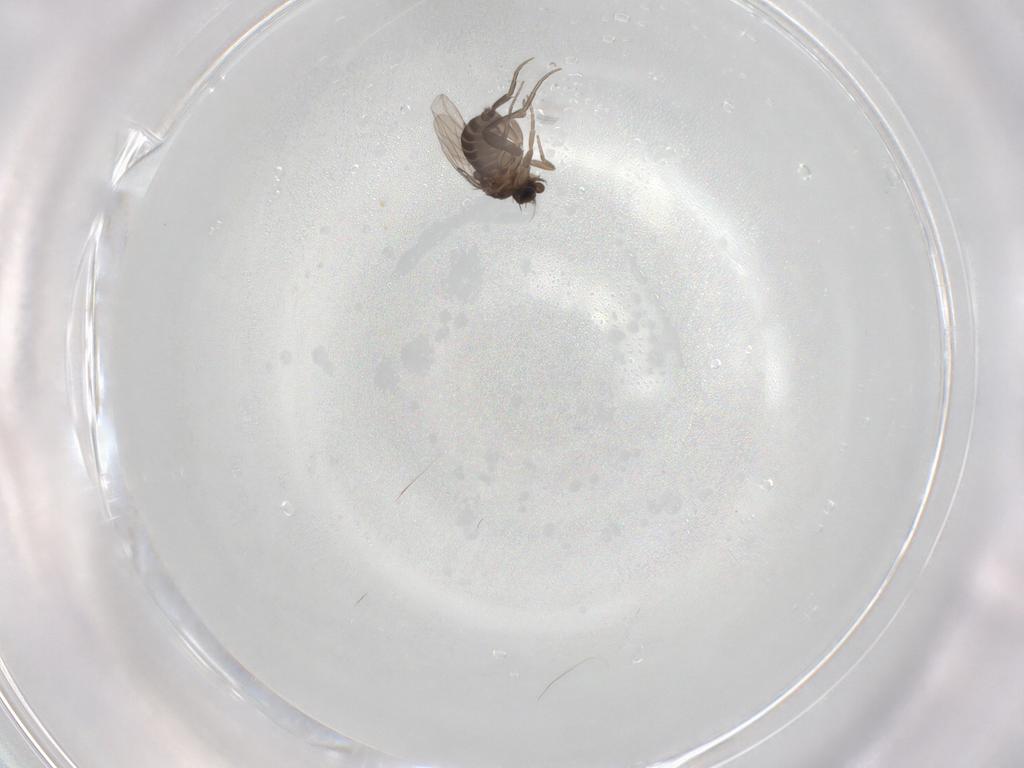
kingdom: Animalia
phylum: Arthropoda
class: Insecta
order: Diptera
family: Phoridae
